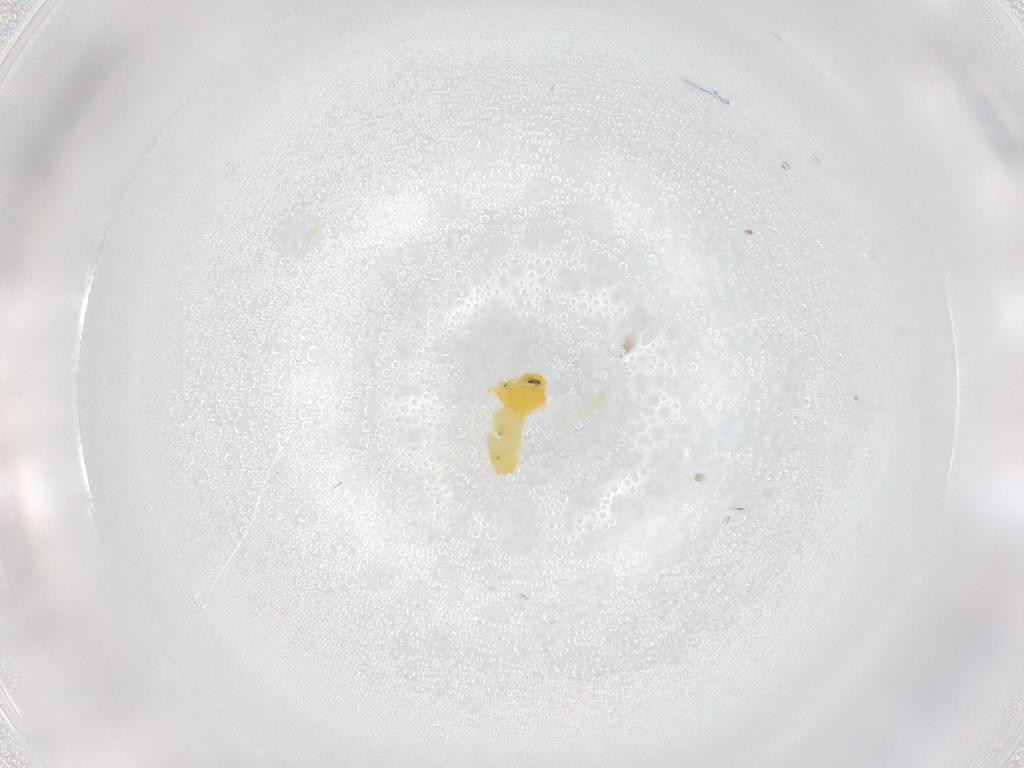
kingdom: Animalia
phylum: Arthropoda
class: Insecta
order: Hemiptera
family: Aleyrodidae
